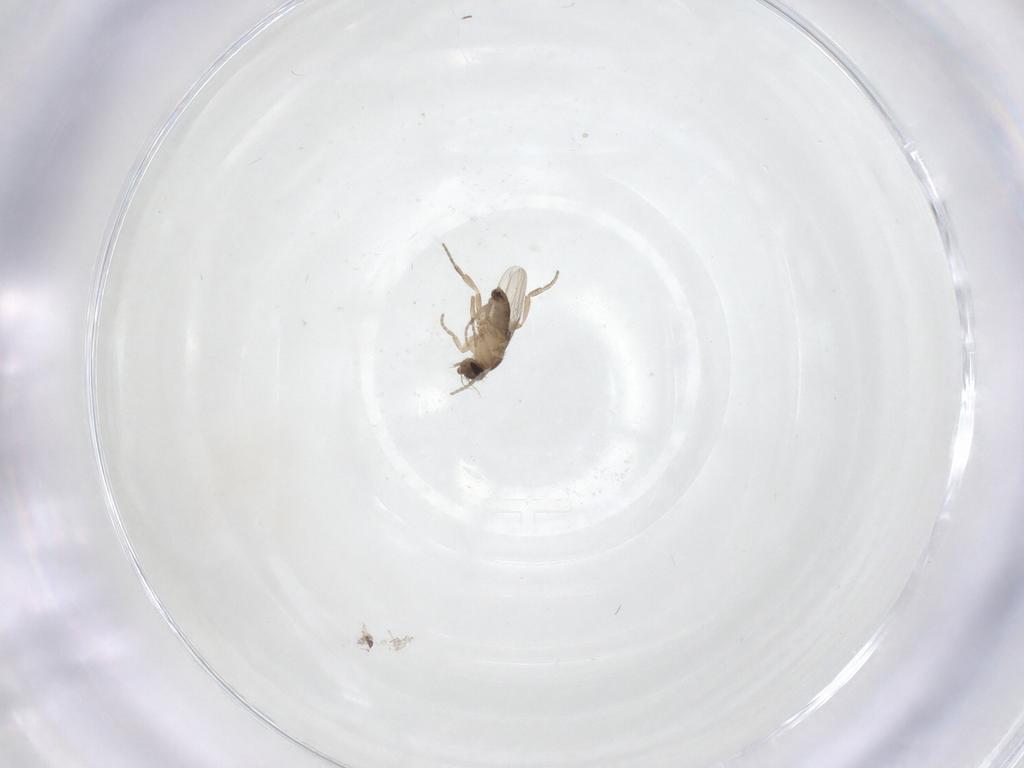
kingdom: Animalia
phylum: Arthropoda
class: Insecta
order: Diptera
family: Phoridae
